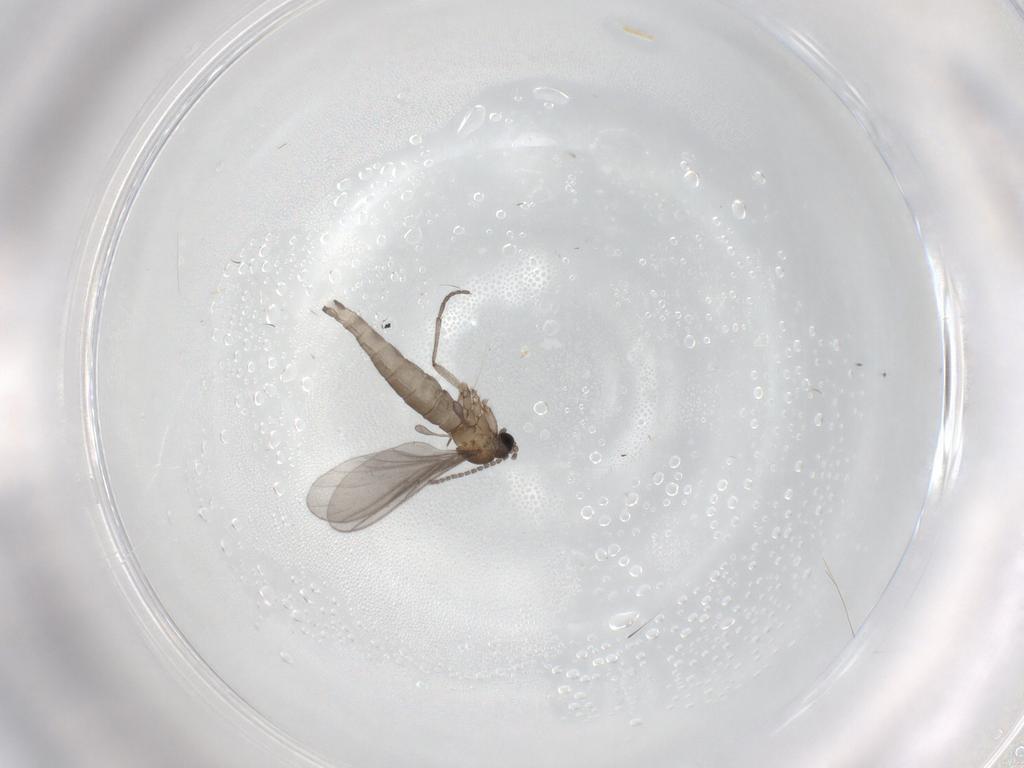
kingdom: Animalia
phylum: Arthropoda
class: Insecta
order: Diptera
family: Sciaridae
